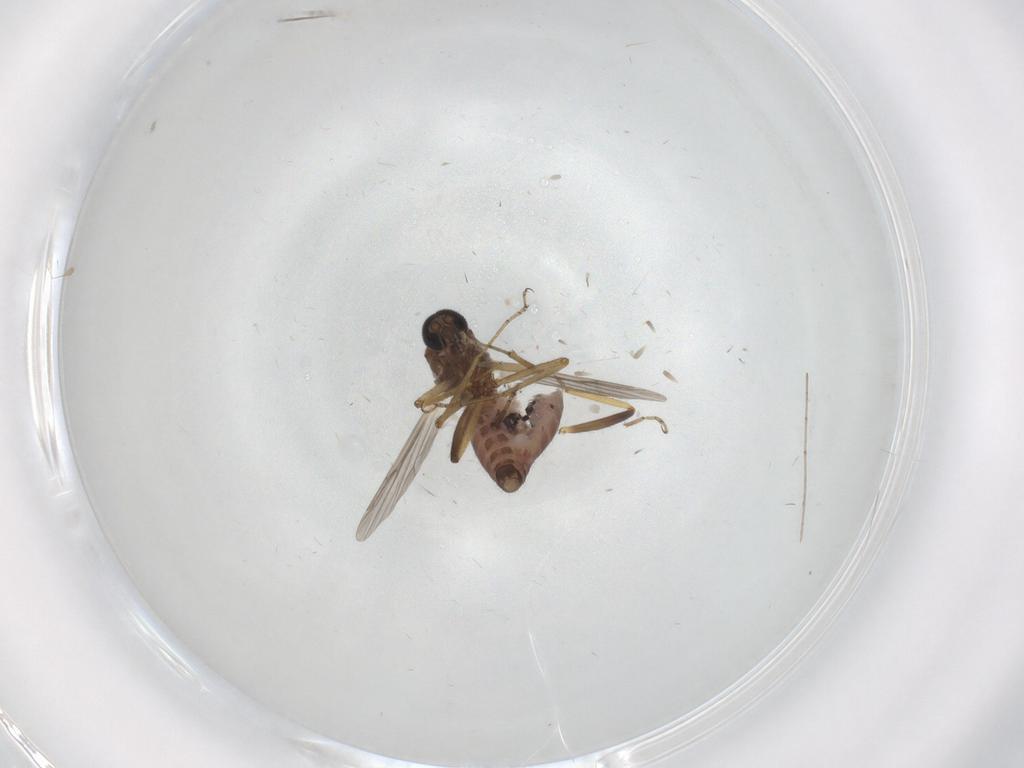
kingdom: Animalia
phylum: Arthropoda
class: Insecta
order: Diptera
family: Ceratopogonidae
